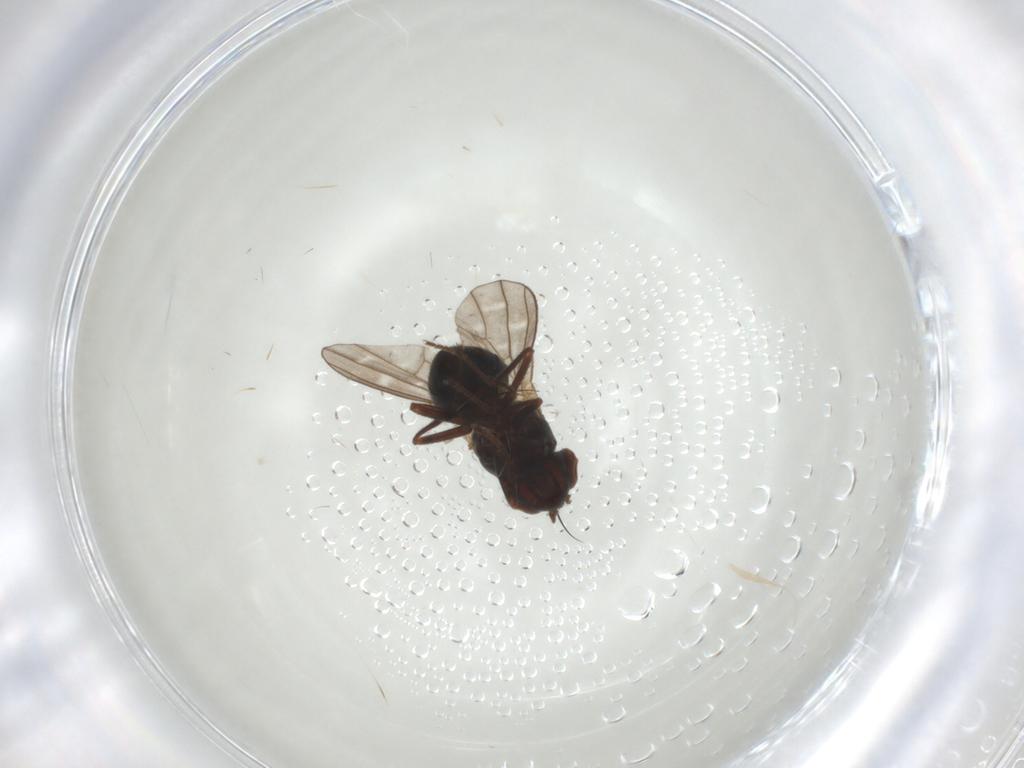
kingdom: Animalia
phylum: Arthropoda
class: Insecta
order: Diptera
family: Ephydridae
